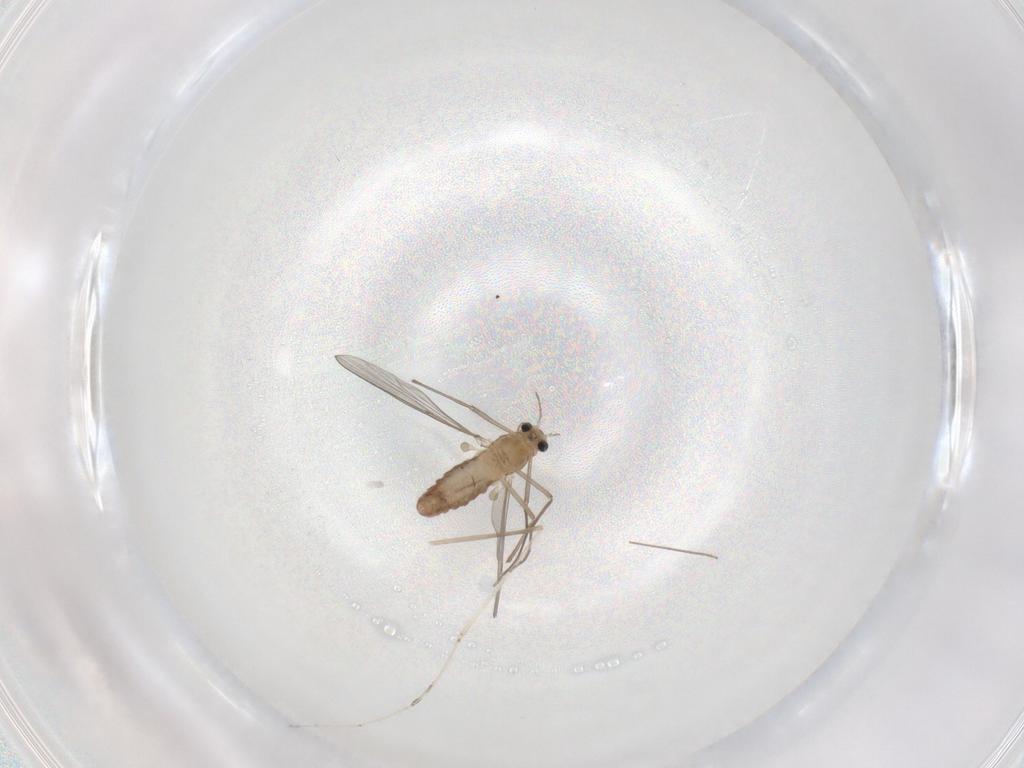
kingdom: Animalia
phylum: Arthropoda
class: Insecta
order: Diptera
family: Chironomidae
